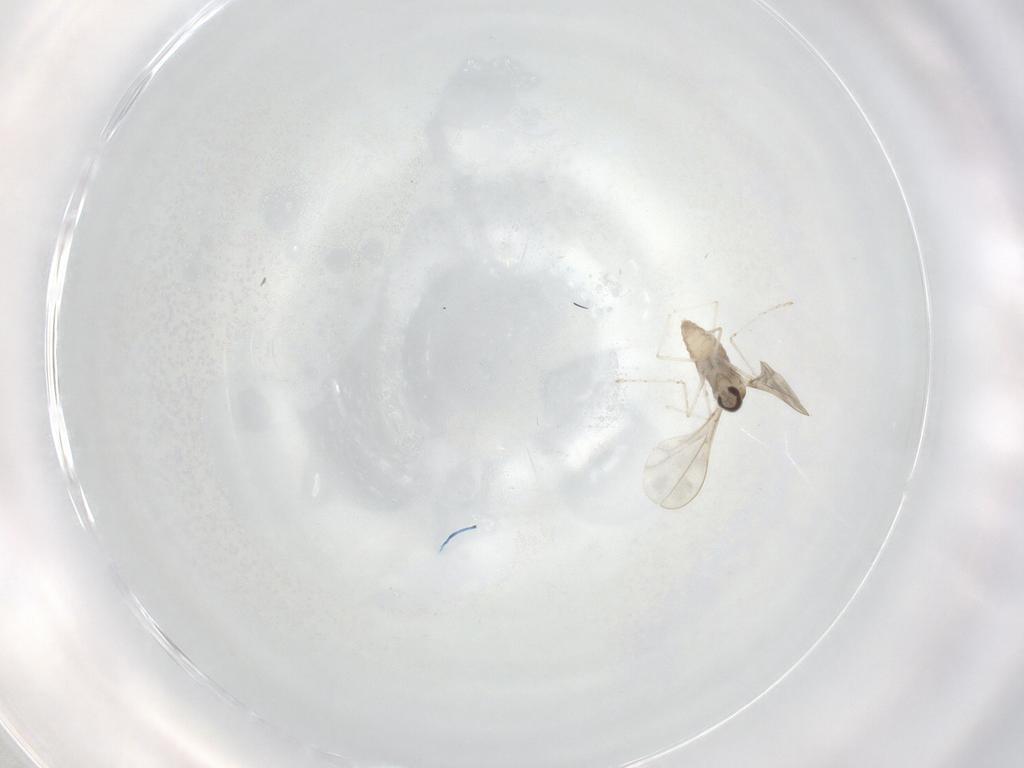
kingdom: Animalia
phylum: Arthropoda
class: Insecta
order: Diptera
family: Cecidomyiidae
